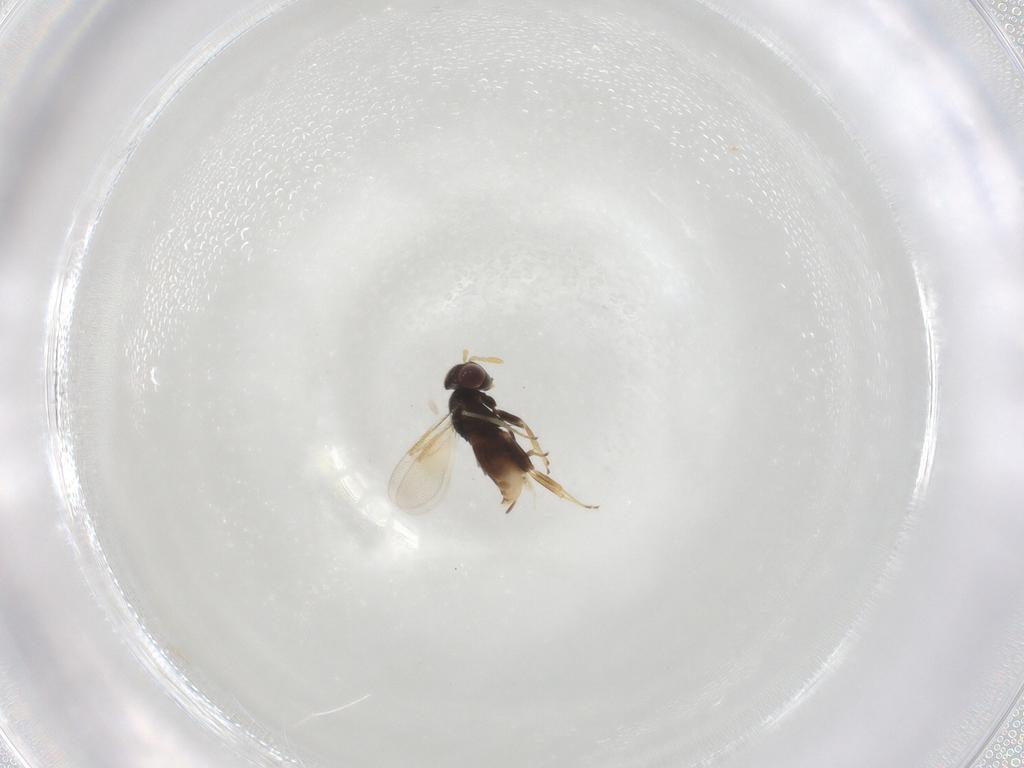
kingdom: Animalia
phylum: Arthropoda
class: Insecta
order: Hymenoptera
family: Aphelinidae
